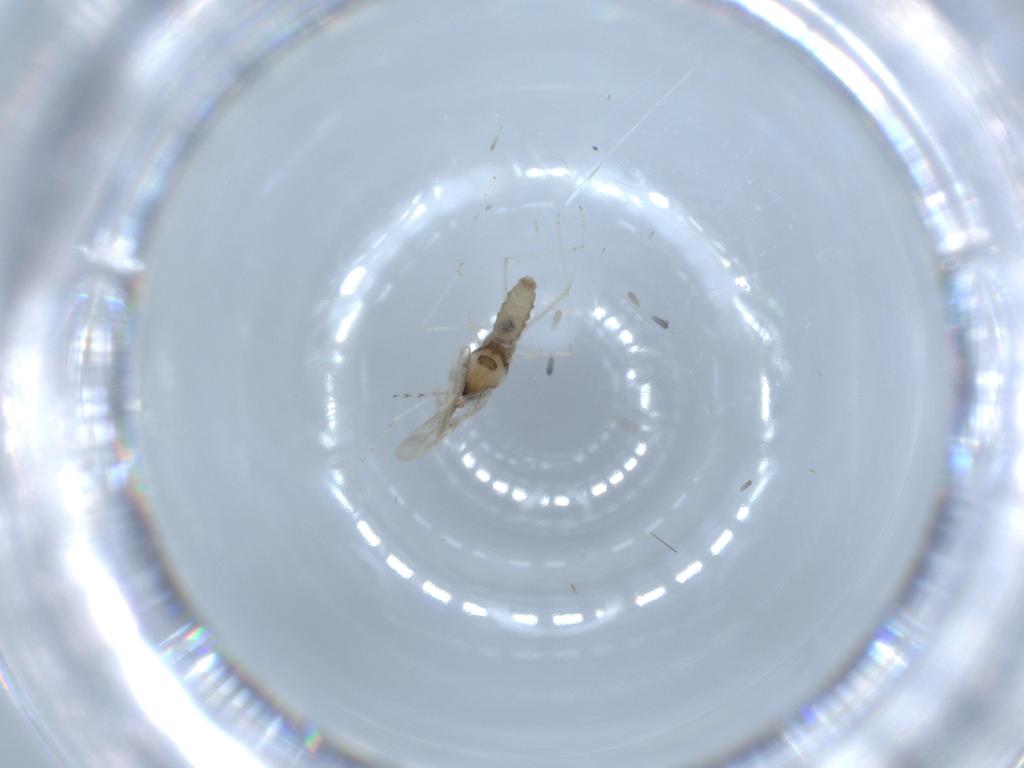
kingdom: Animalia
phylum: Arthropoda
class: Insecta
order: Diptera
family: Cecidomyiidae
